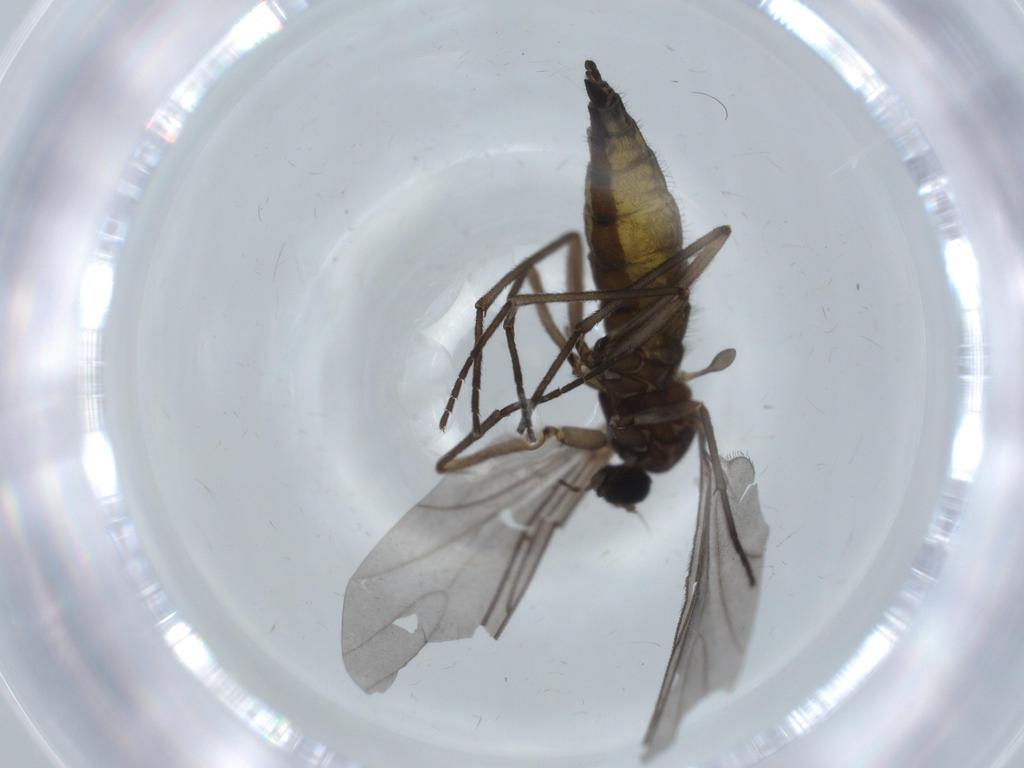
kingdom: Animalia
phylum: Arthropoda
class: Insecta
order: Diptera
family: Sciaridae
